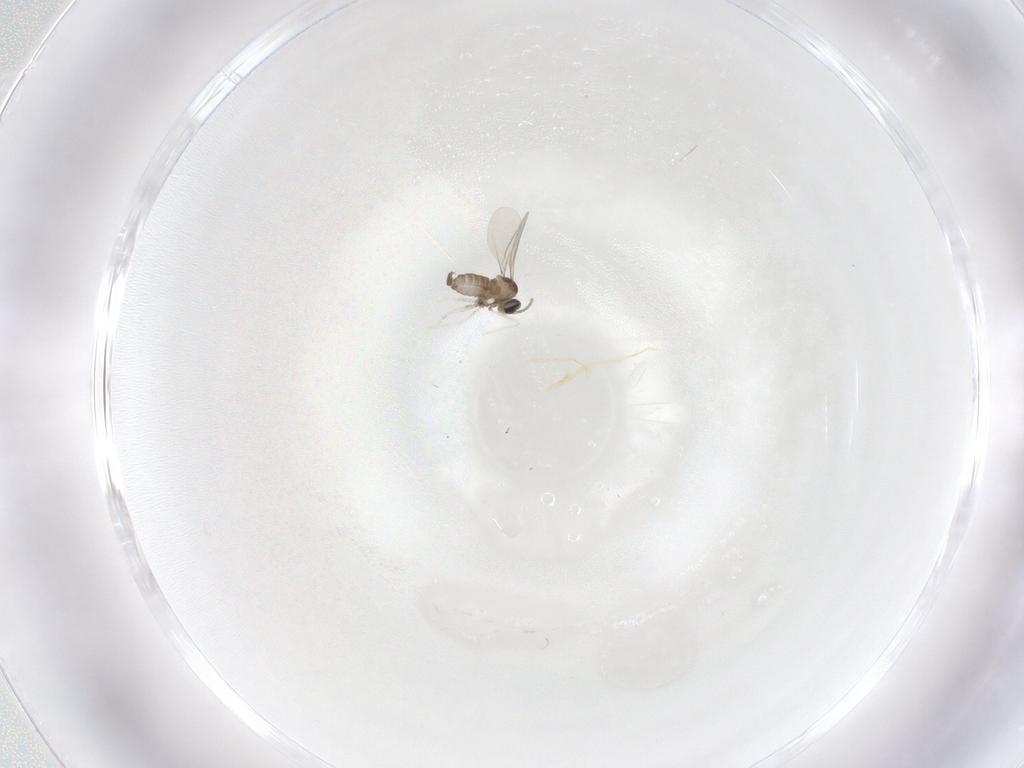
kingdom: Animalia
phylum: Arthropoda
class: Insecta
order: Diptera
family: Cecidomyiidae
